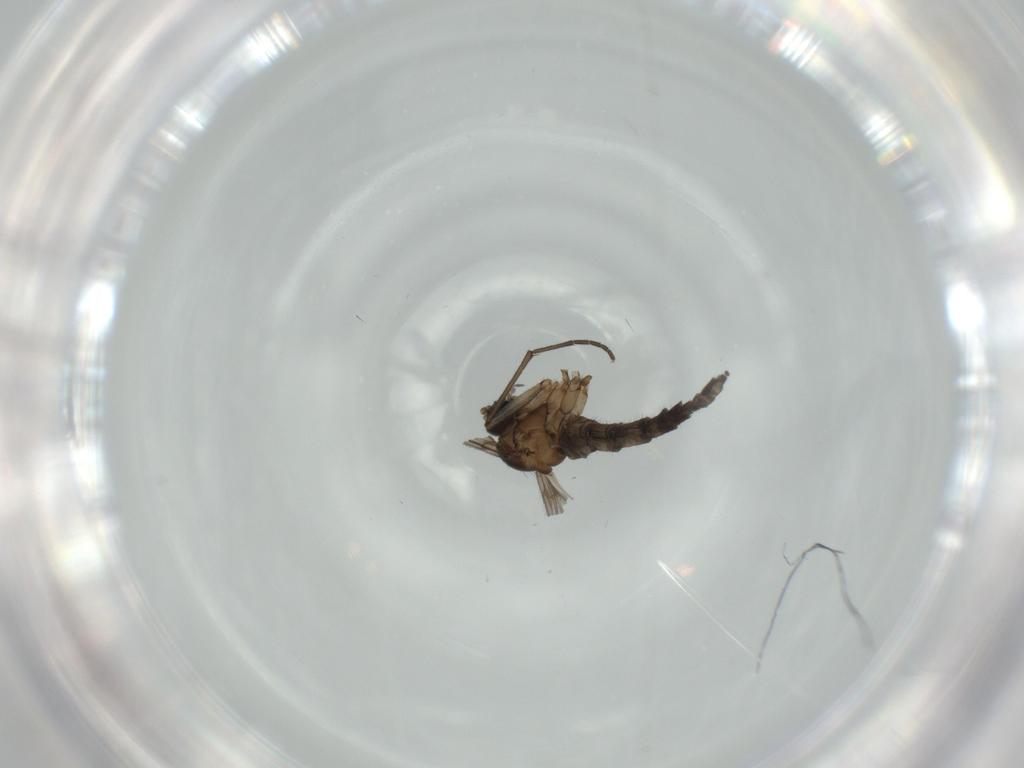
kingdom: Animalia
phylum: Arthropoda
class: Insecta
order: Diptera
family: Sciaridae
